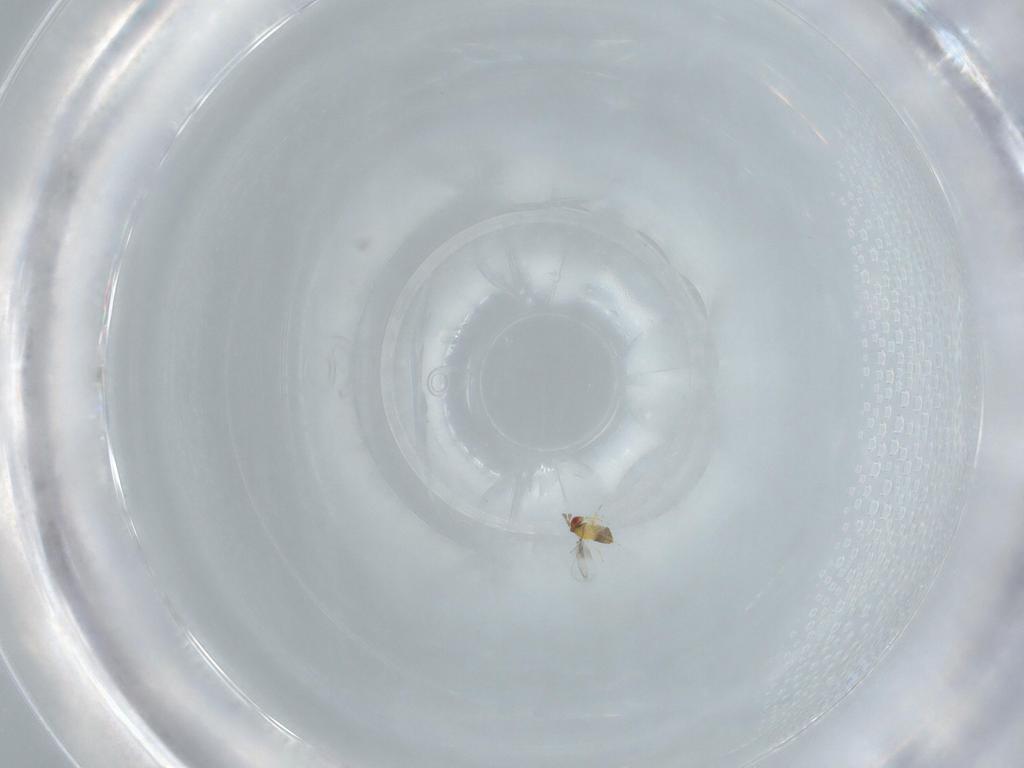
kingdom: Animalia
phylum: Arthropoda
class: Insecta
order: Hymenoptera
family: Trichogrammatidae
